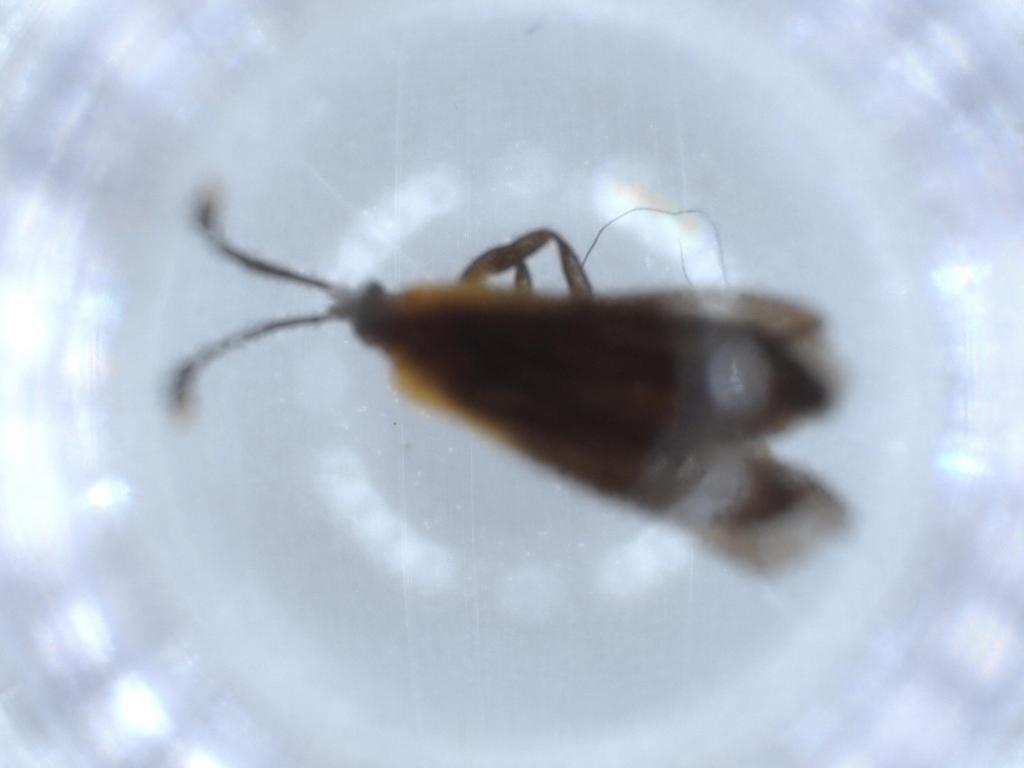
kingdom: Animalia
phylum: Arthropoda
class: Insecta
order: Coleoptera
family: Lycidae
